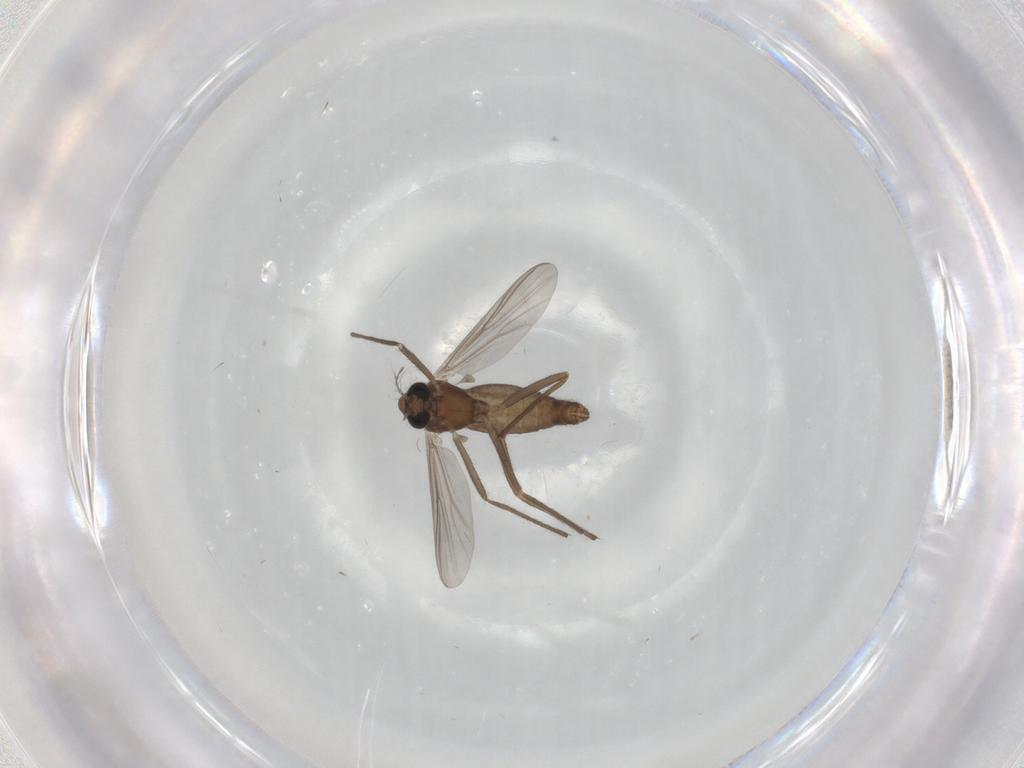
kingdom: Animalia
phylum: Arthropoda
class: Insecta
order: Diptera
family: Chironomidae
